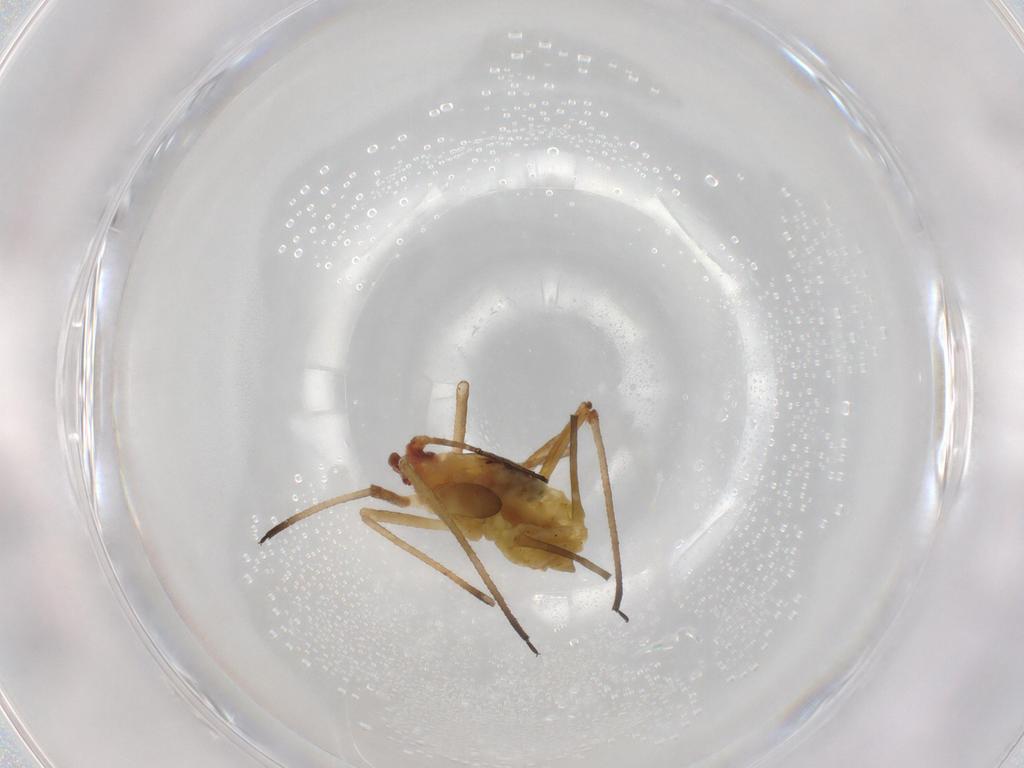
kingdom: Animalia
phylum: Arthropoda
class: Insecta
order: Hemiptera
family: Aphididae
